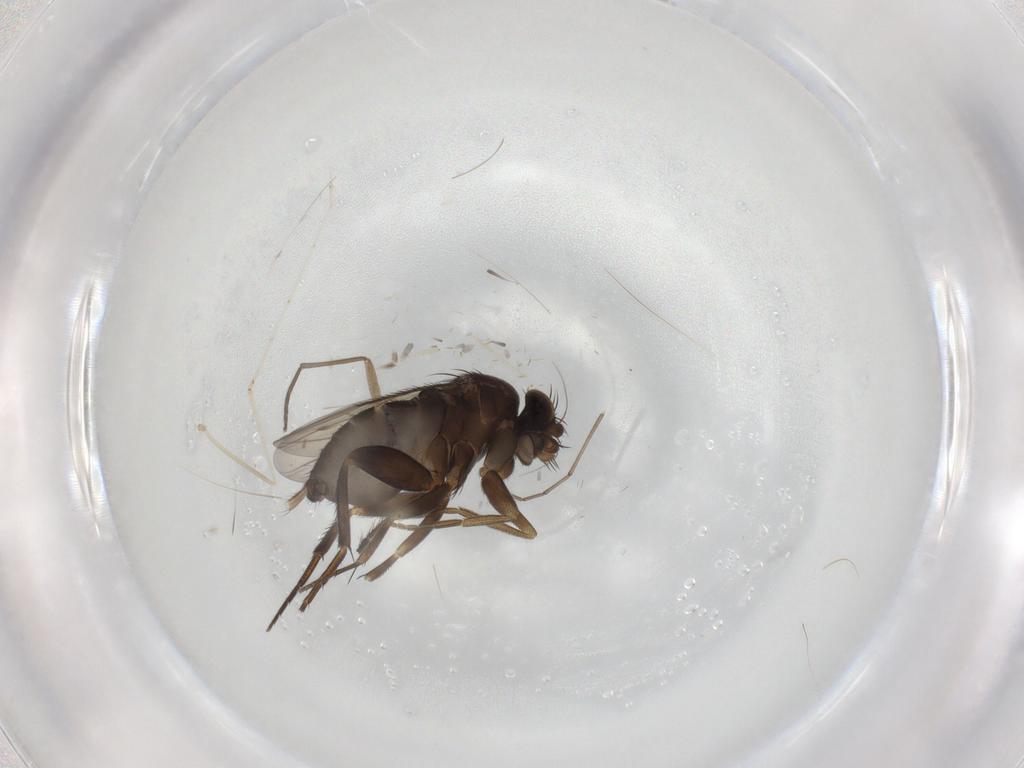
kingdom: Animalia
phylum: Arthropoda
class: Insecta
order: Diptera
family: Phoridae
